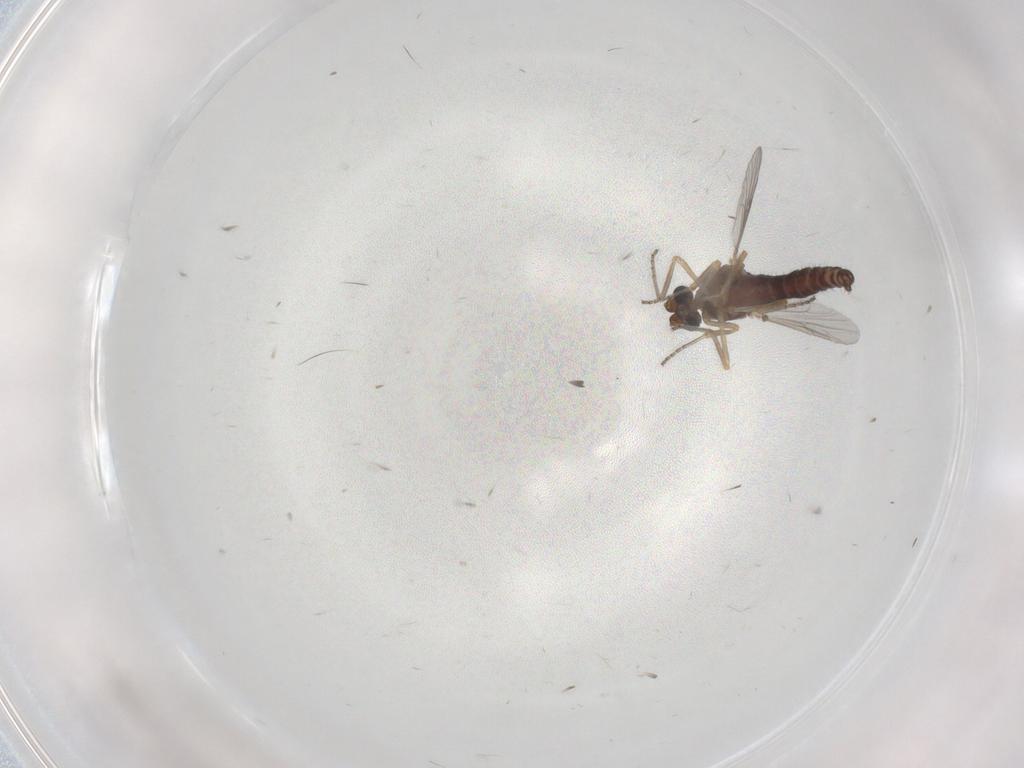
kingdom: Animalia
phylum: Arthropoda
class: Insecta
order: Diptera
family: Ceratopogonidae
